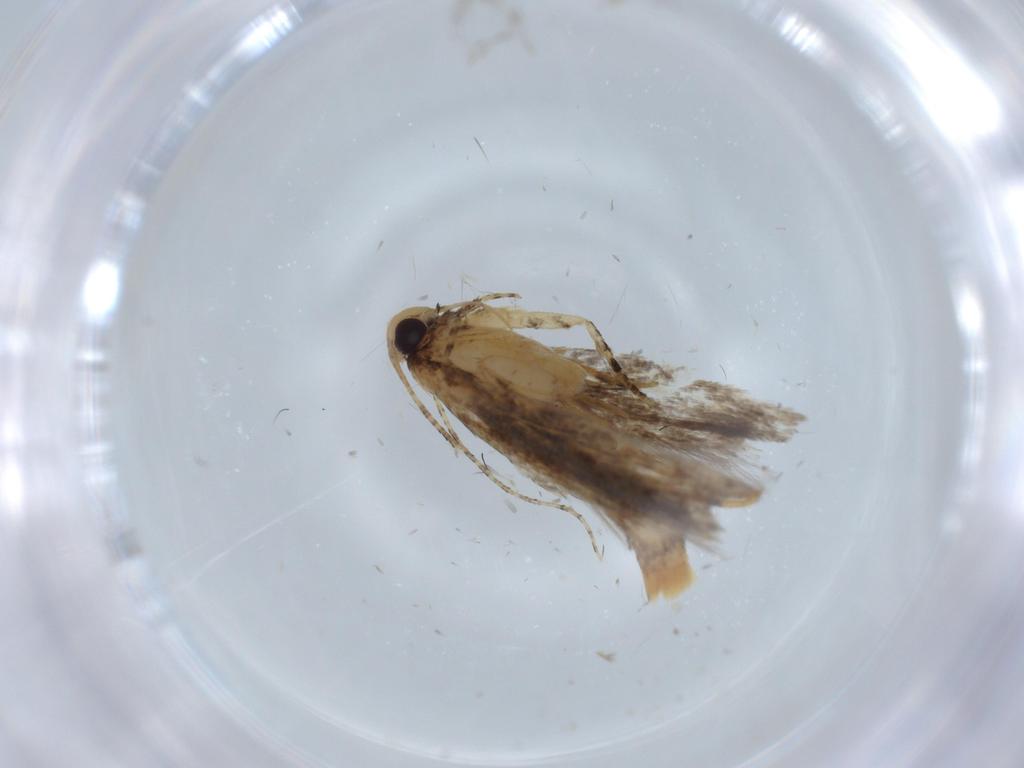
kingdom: Animalia
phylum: Arthropoda
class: Insecta
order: Lepidoptera
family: Gelechiidae
